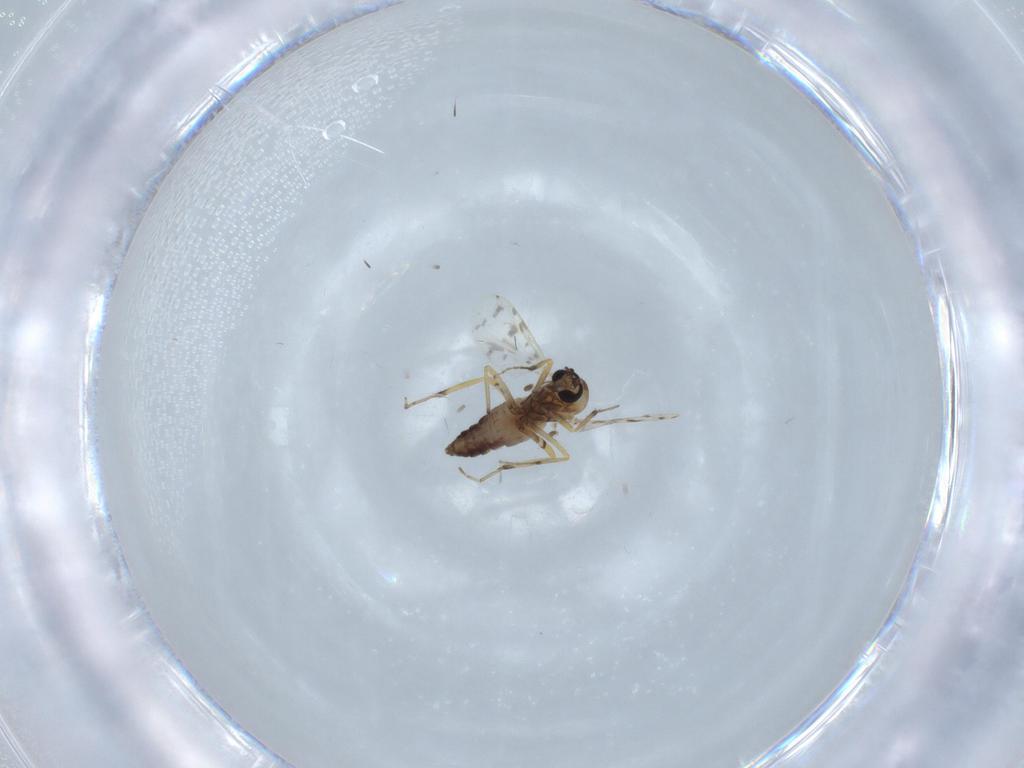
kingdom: Animalia
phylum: Arthropoda
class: Insecta
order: Diptera
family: Ceratopogonidae
